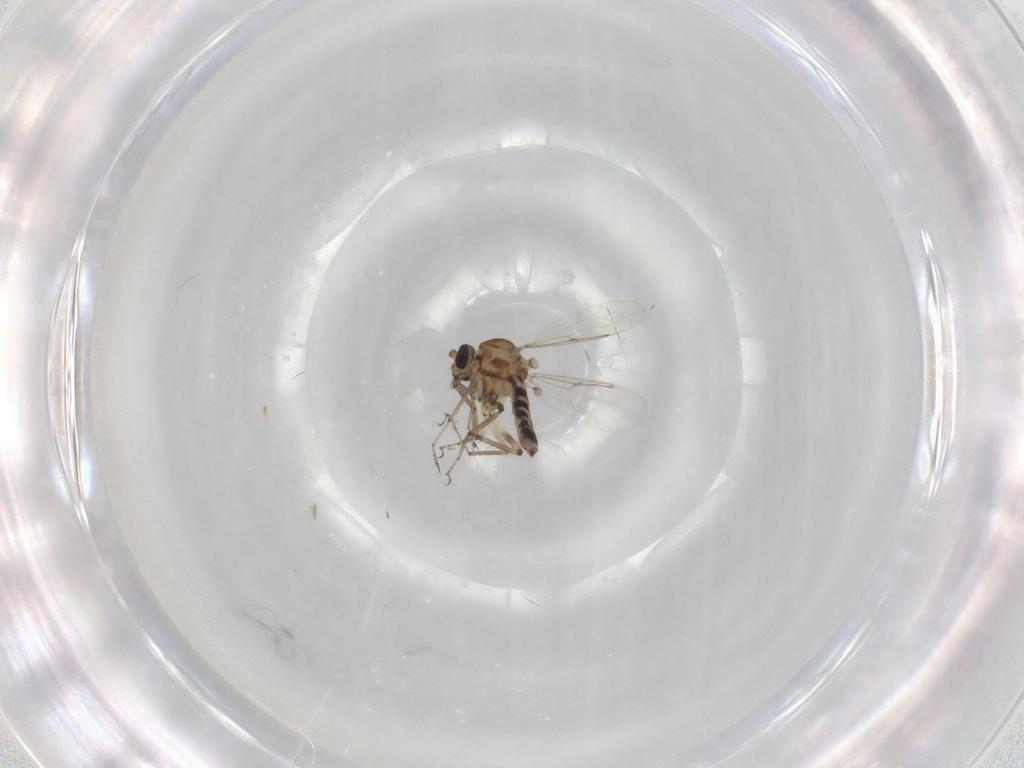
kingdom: Animalia
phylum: Arthropoda
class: Insecta
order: Diptera
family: Ceratopogonidae
